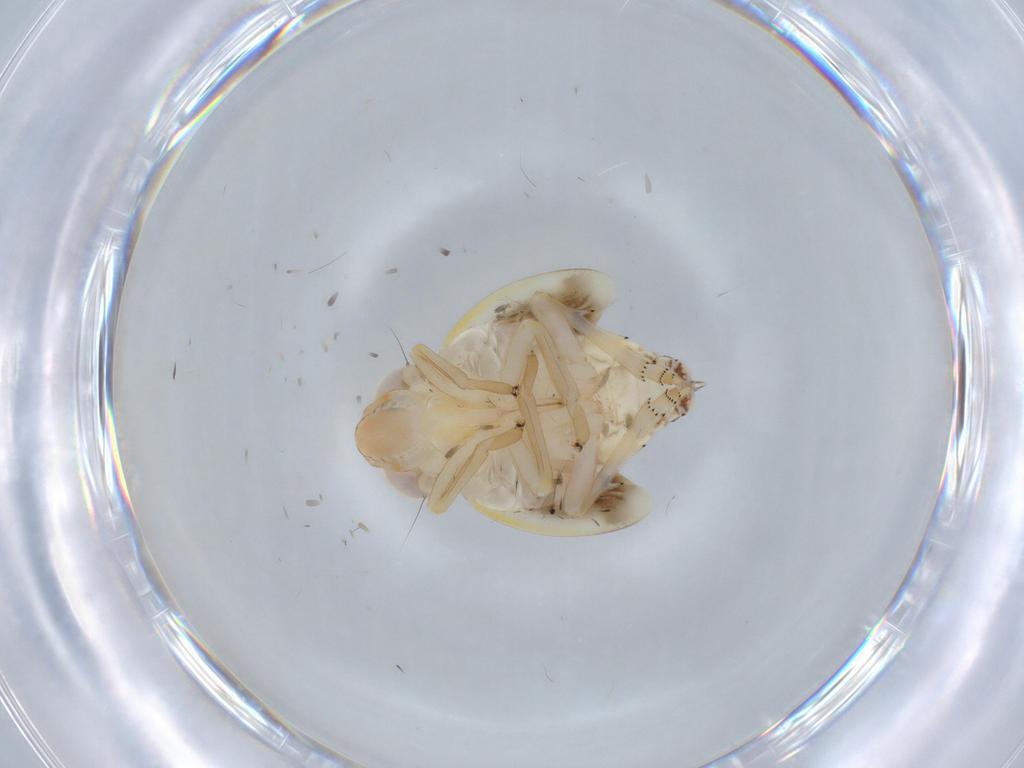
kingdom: Animalia
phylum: Arthropoda
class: Insecta
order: Hemiptera
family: Nogodinidae
